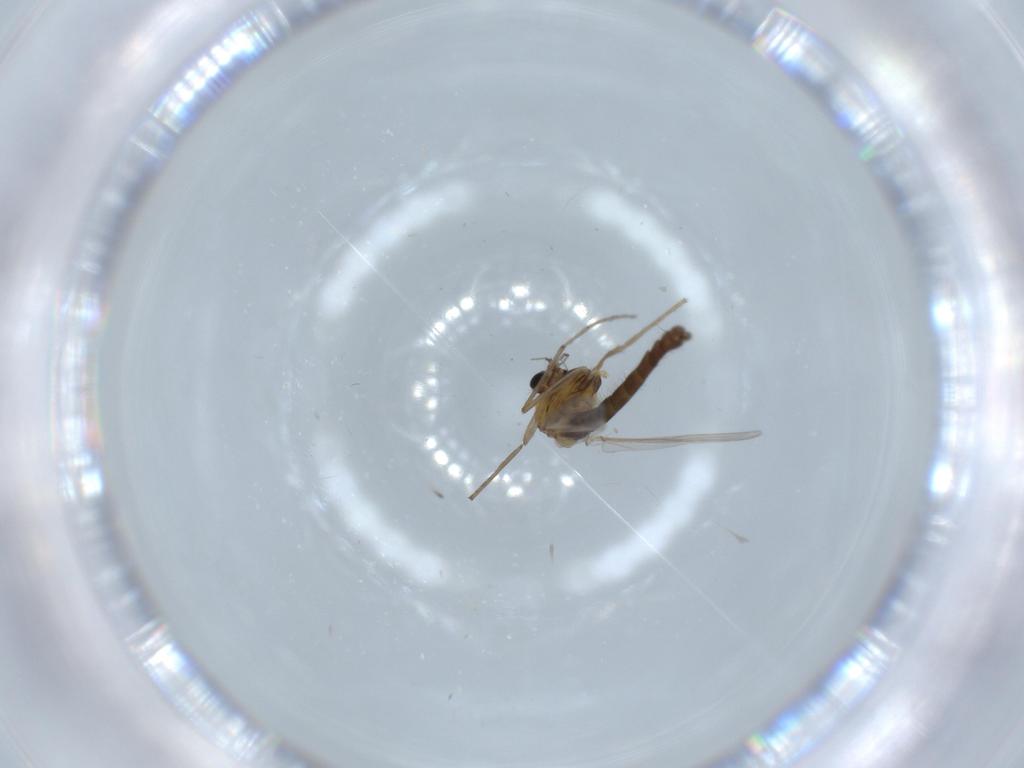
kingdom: Animalia
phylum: Arthropoda
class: Insecta
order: Diptera
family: Chironomidae
